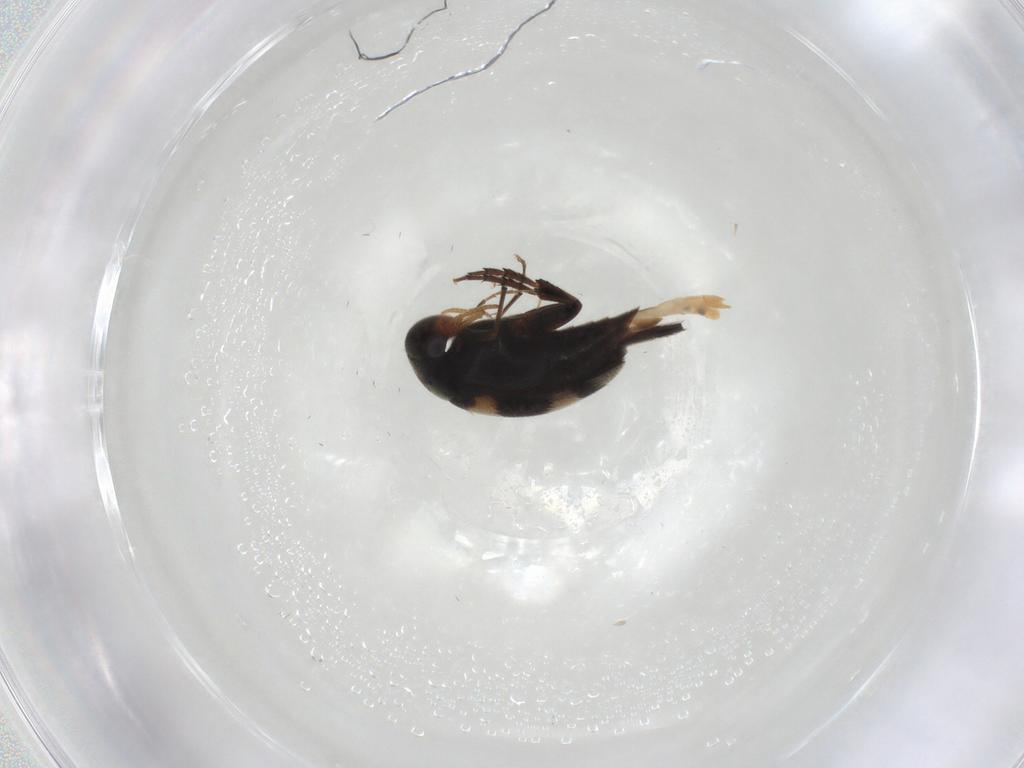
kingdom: Animalia
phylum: Arthropoda
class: Insecta
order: Coleoptera
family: Mordellidae
